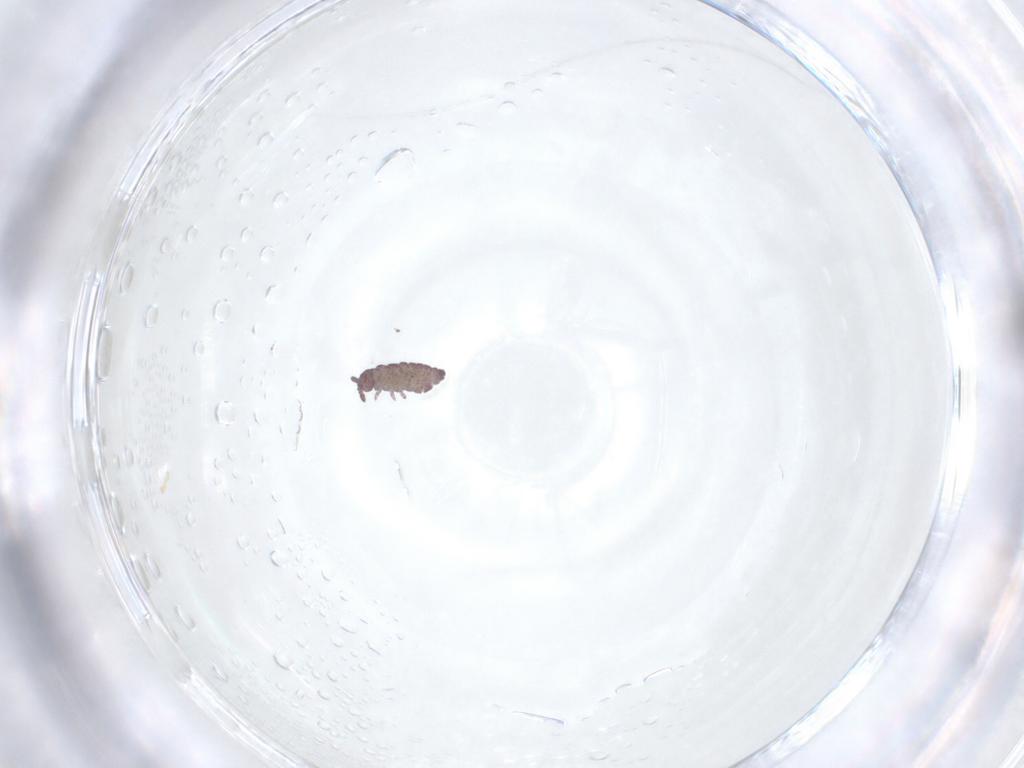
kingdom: Animalia
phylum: Arthropoda
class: Collembola
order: Poduromorpha
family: Hypogastruridae
